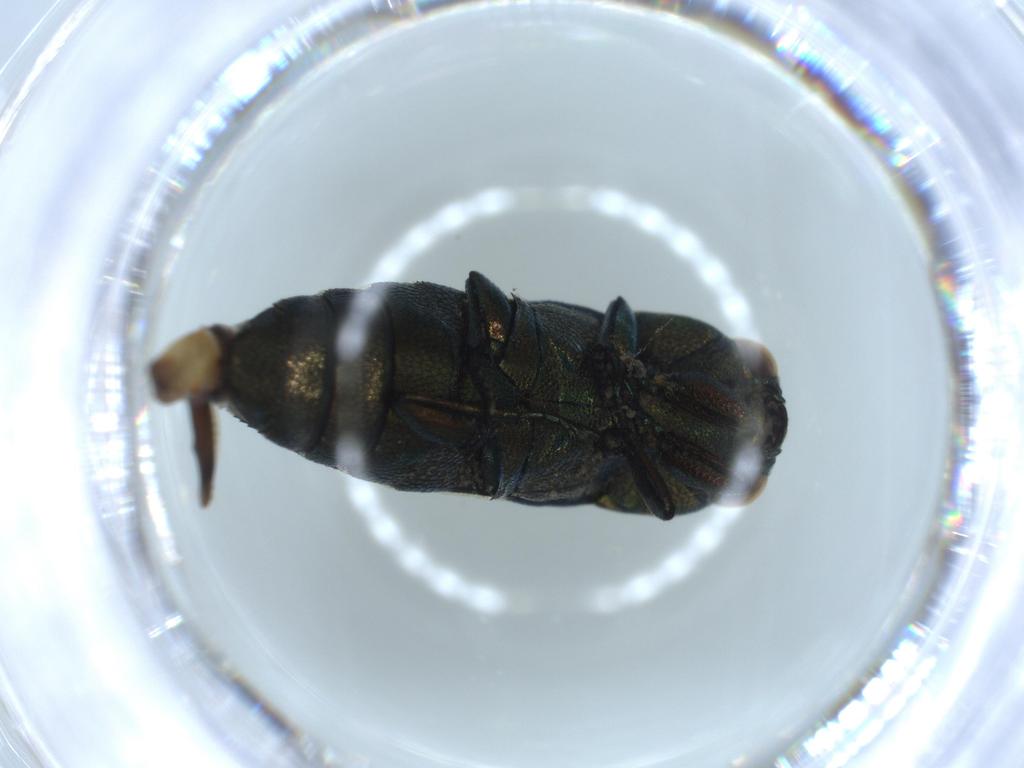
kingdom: Animalia
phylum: Arthropoda
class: Insecta
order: Coleoptera
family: Buprestidae
